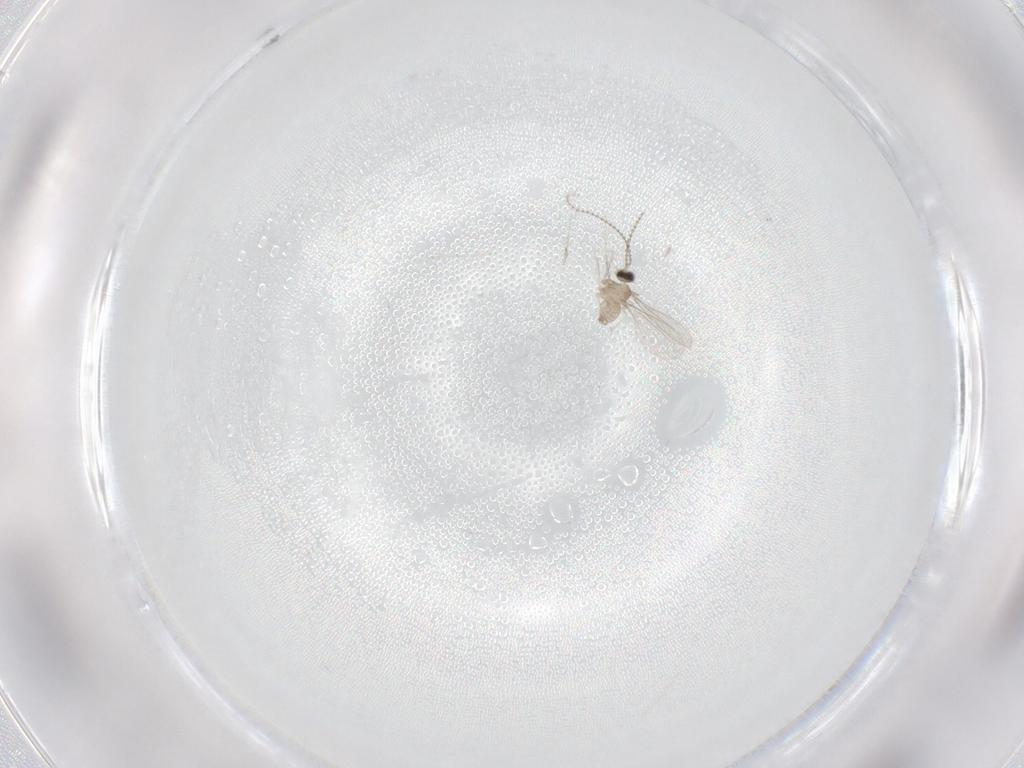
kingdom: Animalia
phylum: Arthropoda
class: Insecta
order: Diptera
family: Cecidomyiidae
